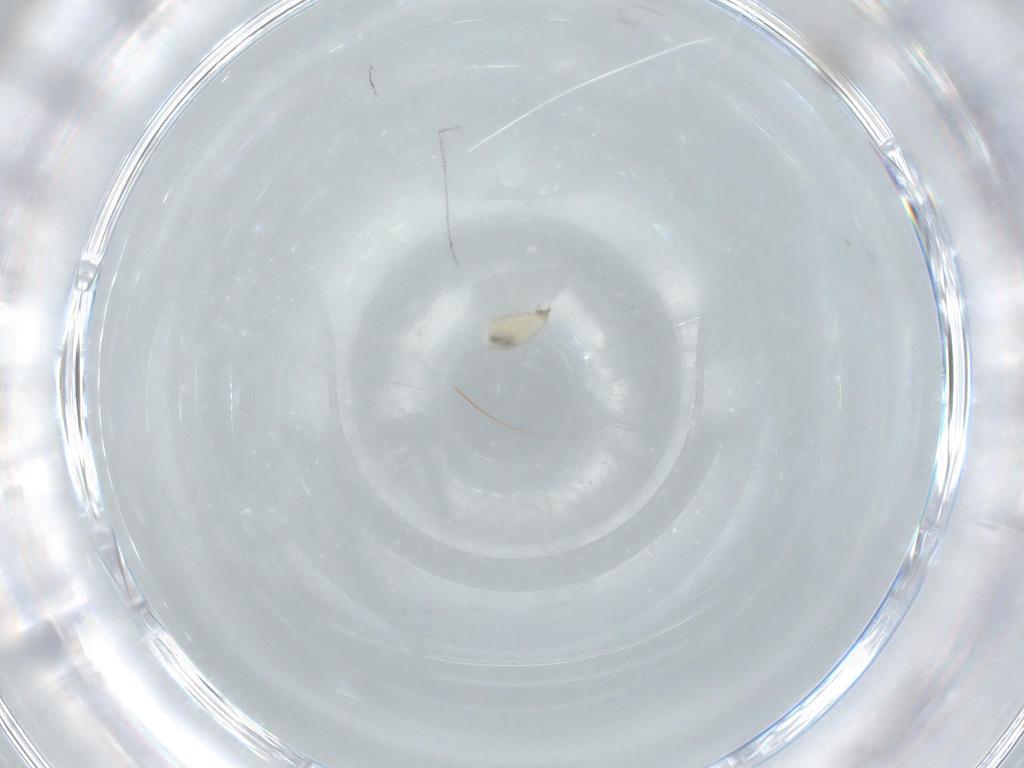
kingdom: Animalia
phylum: Arthropoda
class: Insecta
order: Diptera
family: Cecidomyiidae
